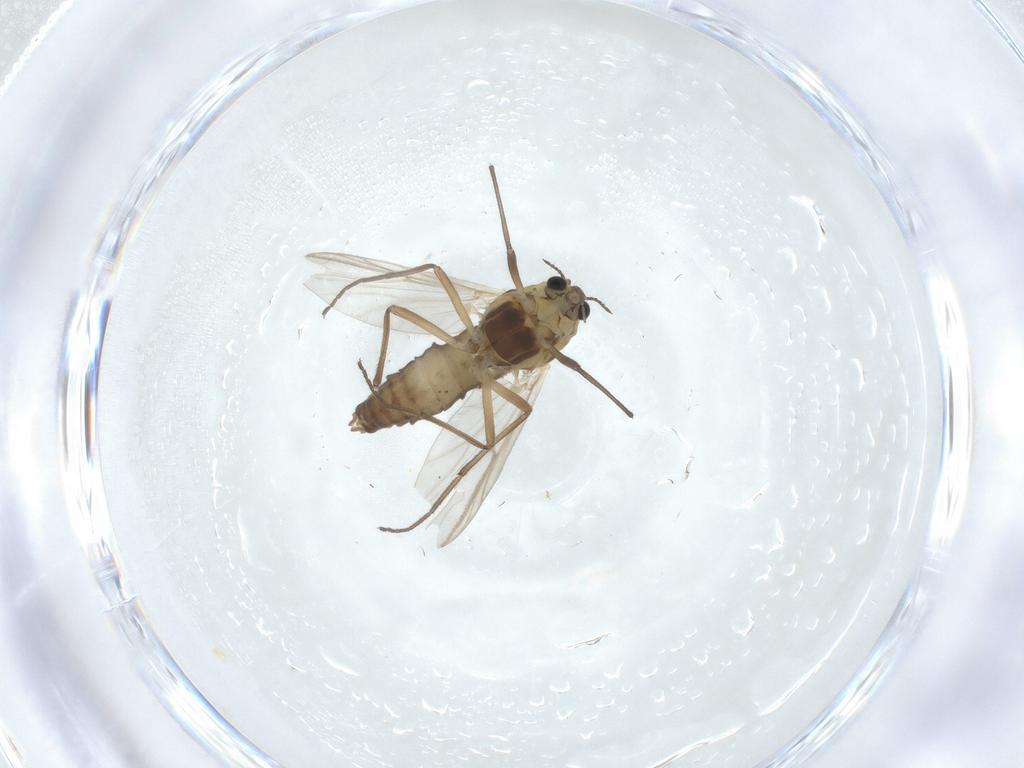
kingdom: Animalia
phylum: Arthropoda
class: Insecta
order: Diptera
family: Chironomidae
